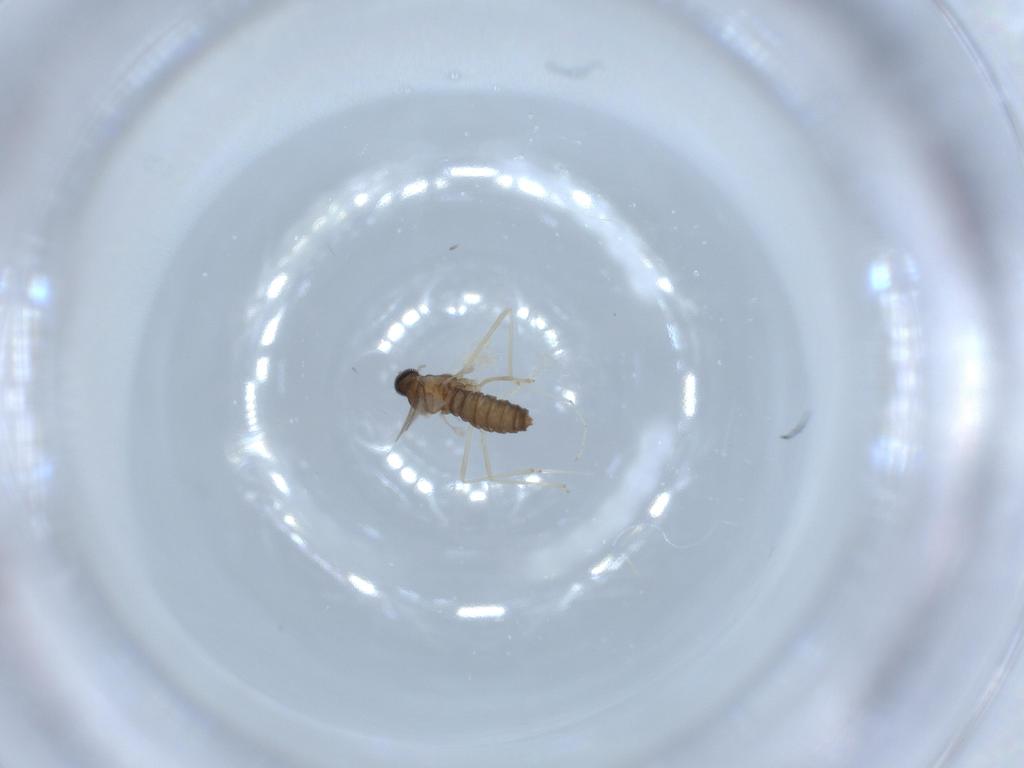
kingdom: Animalia
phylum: Arthropoda
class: Insecta
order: Diptera
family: Cecidomyiidae
